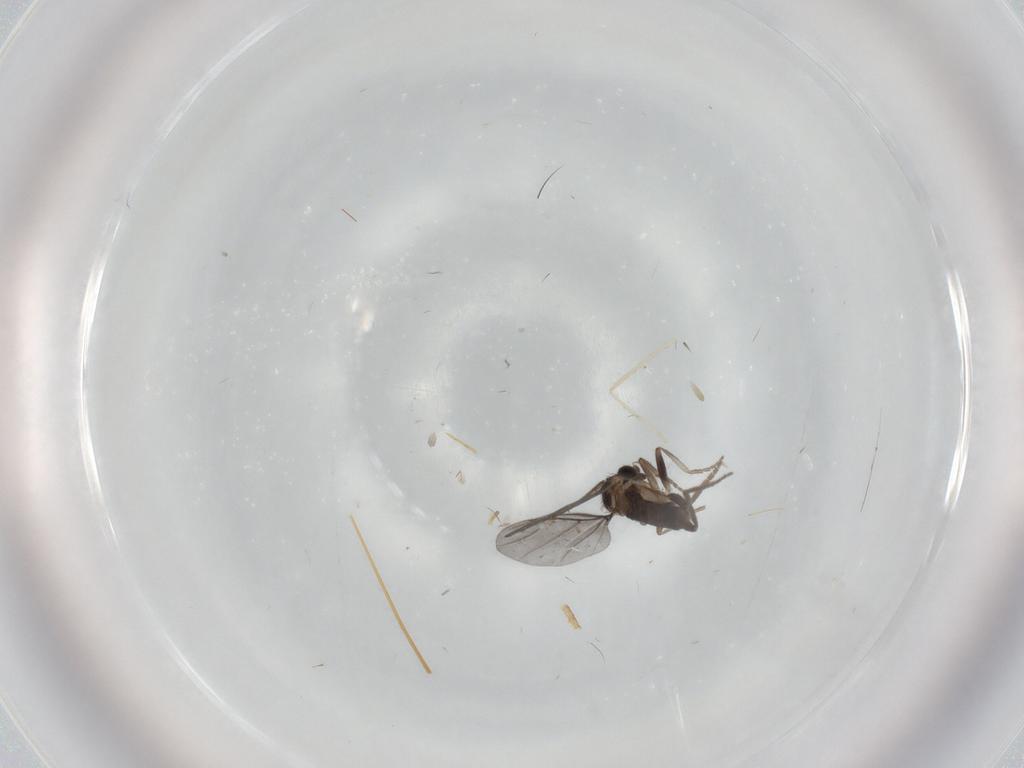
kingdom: Animalia
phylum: Arthropoda
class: Insecta
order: Diptera
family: Phoridae
